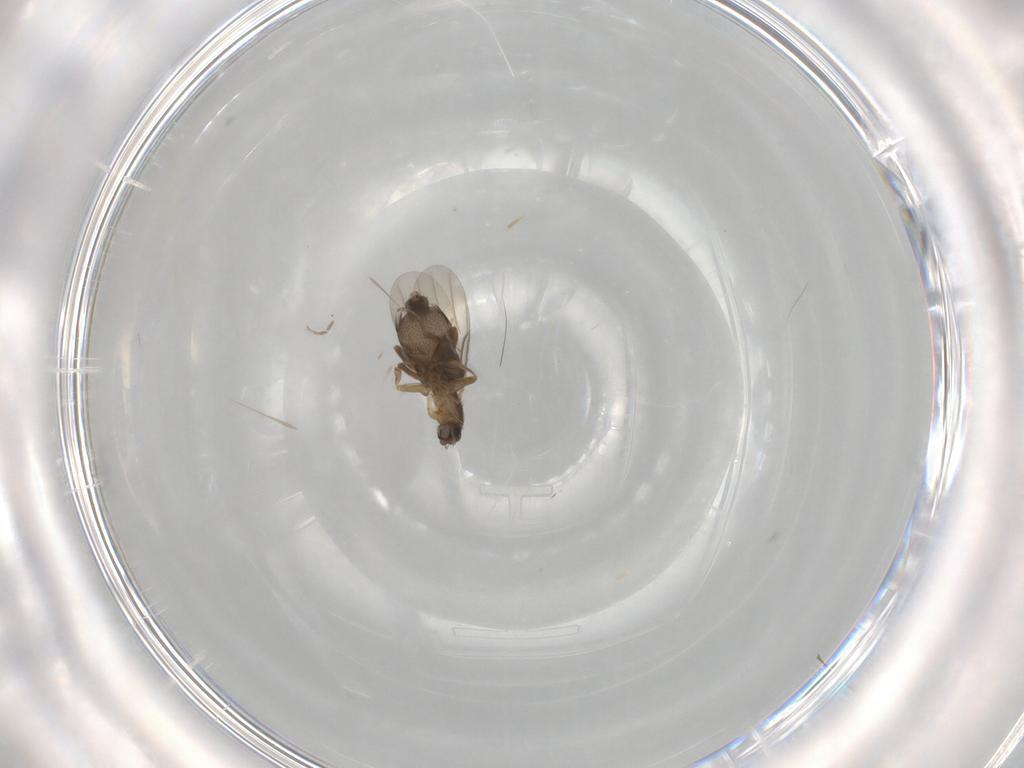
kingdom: Animalia
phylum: Arthropoda
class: Insecta
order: Diptera
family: Phoridae
